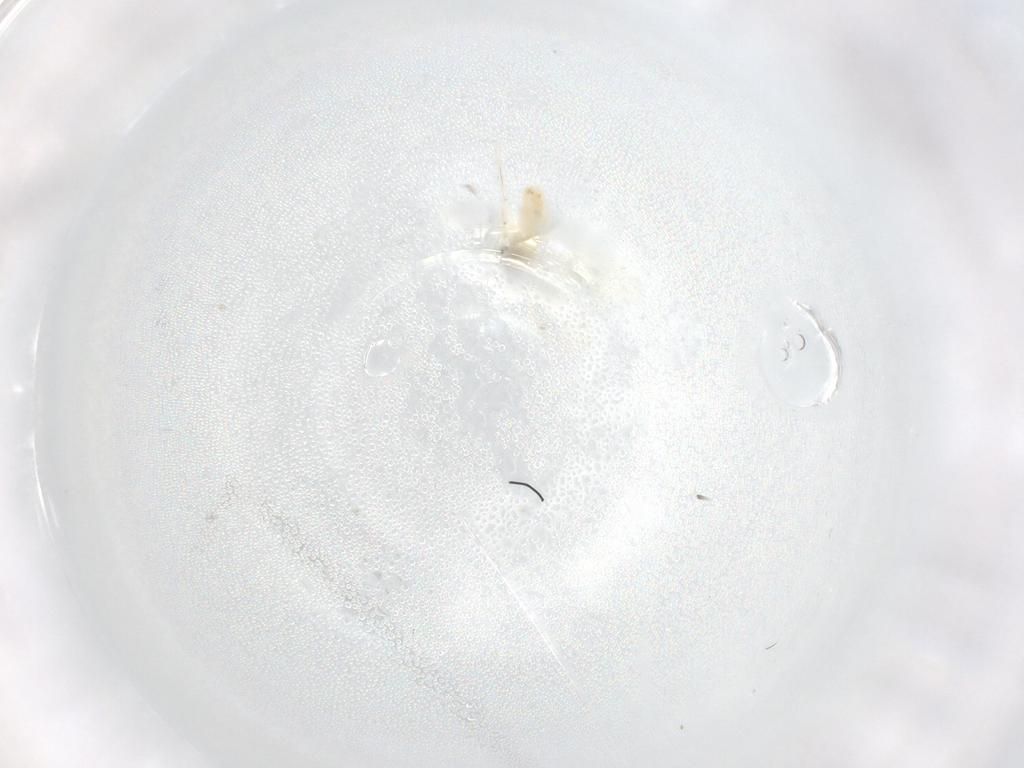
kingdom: Animalia
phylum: Arthropoda
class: Insecta
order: Hemiptera
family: Aleyrodidae
